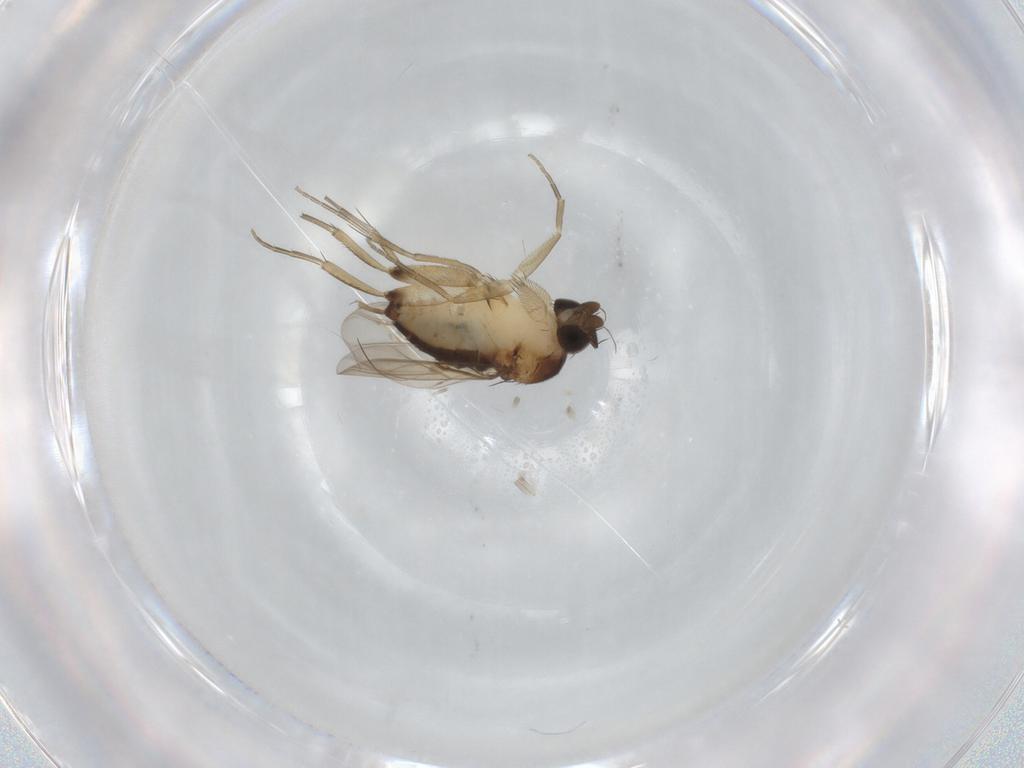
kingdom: Animalia
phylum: Arthropoda
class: Insecta
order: Diptera
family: Phoridae
